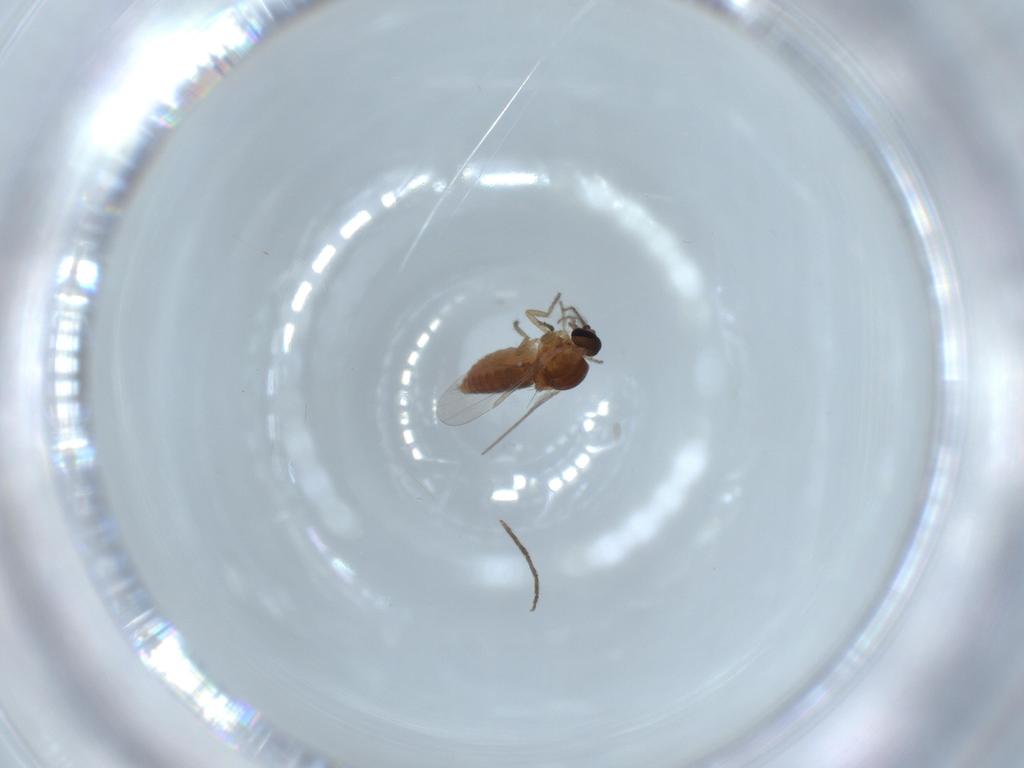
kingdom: Animalia
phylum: Arthropoda
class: Insecta
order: Diptera
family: Ceratopogonidae
